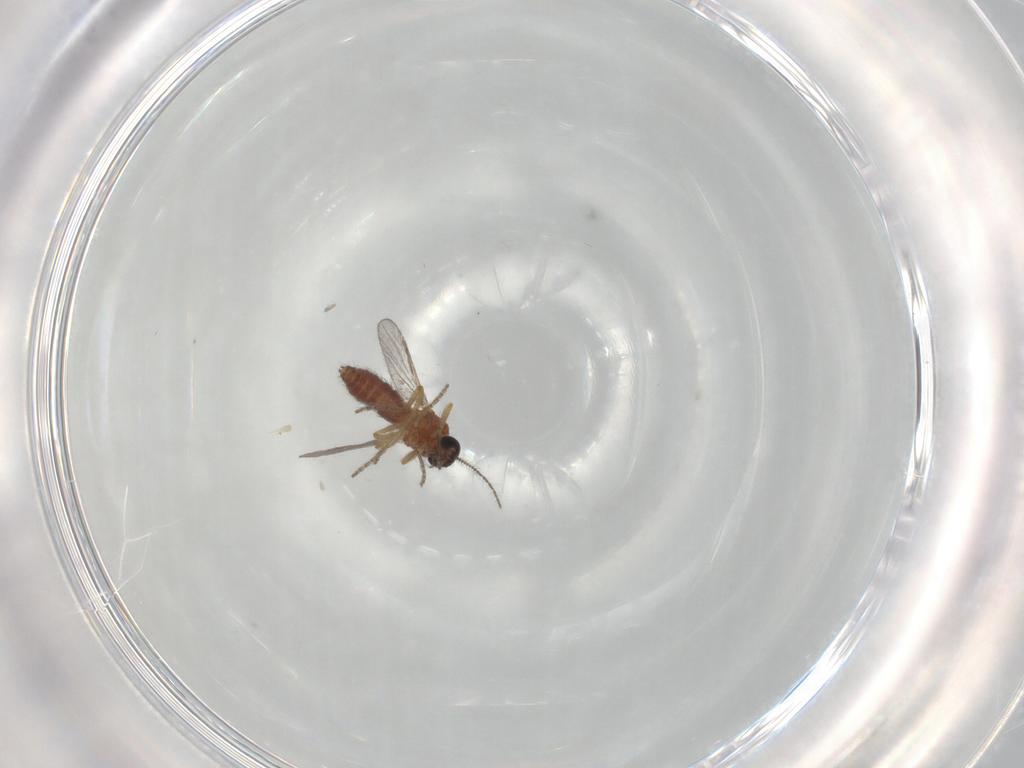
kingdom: Animalia
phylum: Arthropoda
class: Insecta
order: Diptera
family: Ceratopogonidae
